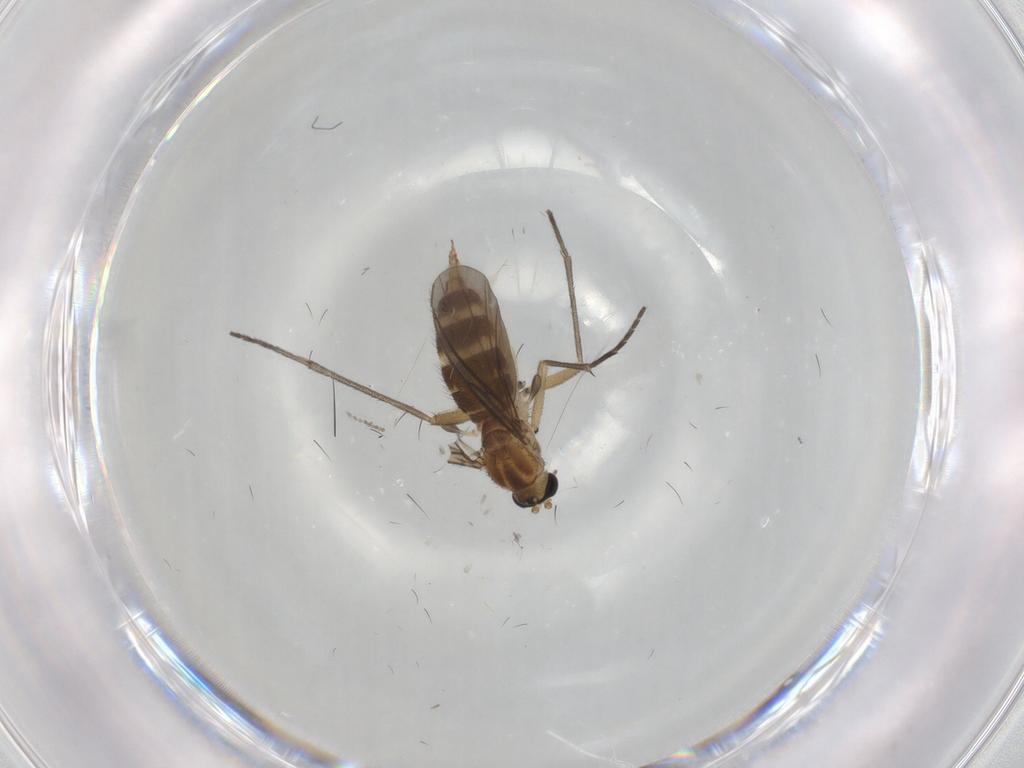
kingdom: Animalia
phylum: Arthropoda
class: Insecta
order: Diptera
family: Sciaridae
